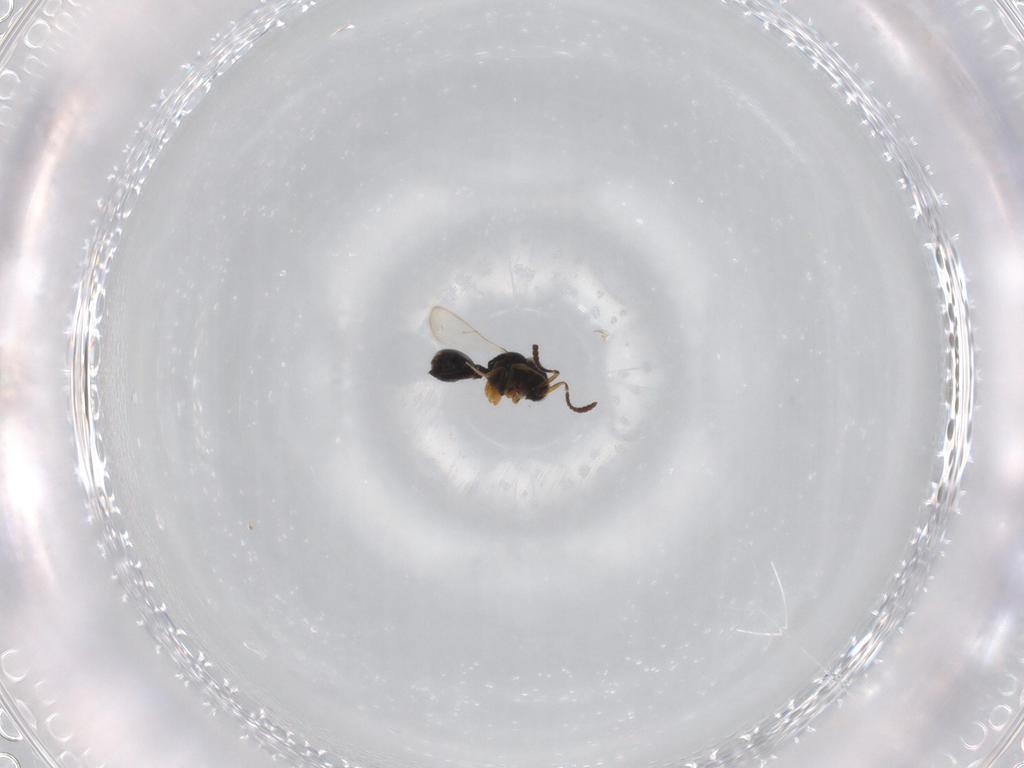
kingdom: Animalia
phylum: Arthropoda
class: Insecta
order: Hymenoptera
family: Scelionidae
